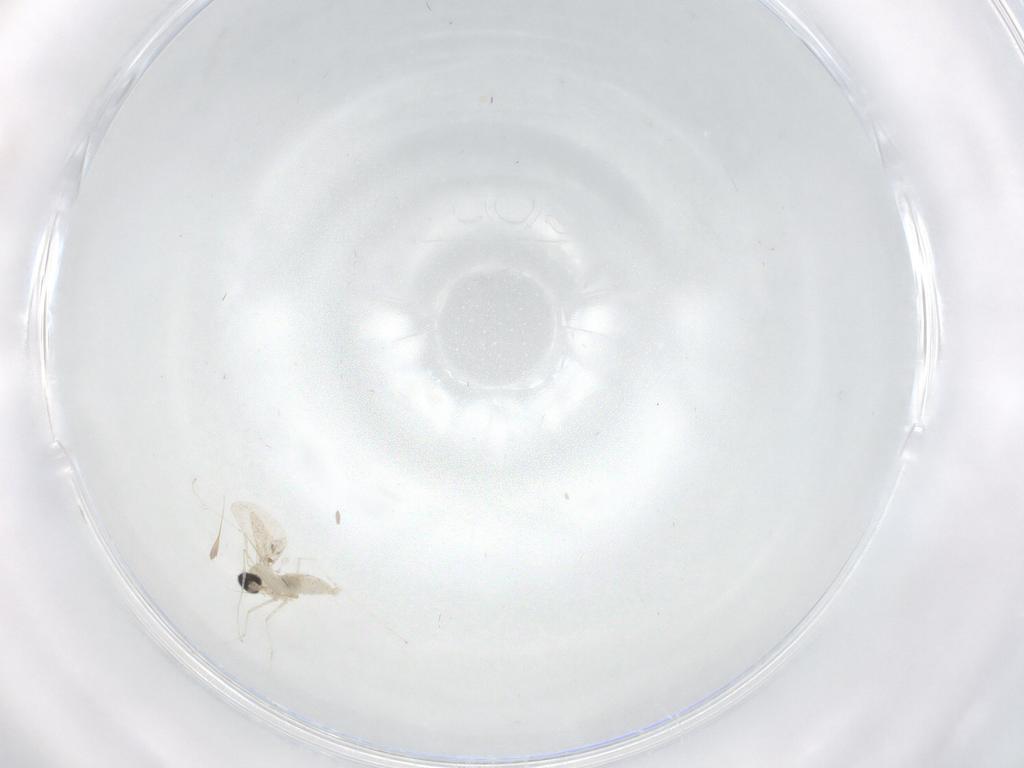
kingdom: Animalia
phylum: Arthropoda
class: Insecta
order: Diptera
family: Cecidomyiidae
